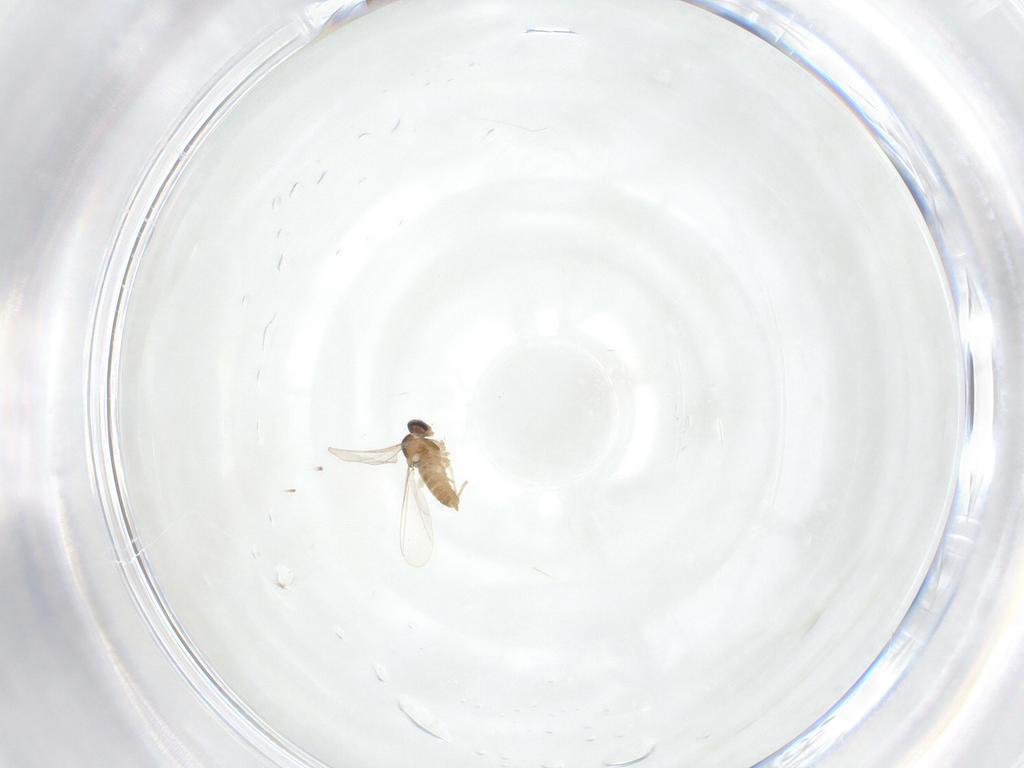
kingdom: Animalia
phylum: Arthropoda
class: Insecta
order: Diptera
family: Cecidomyiidae
